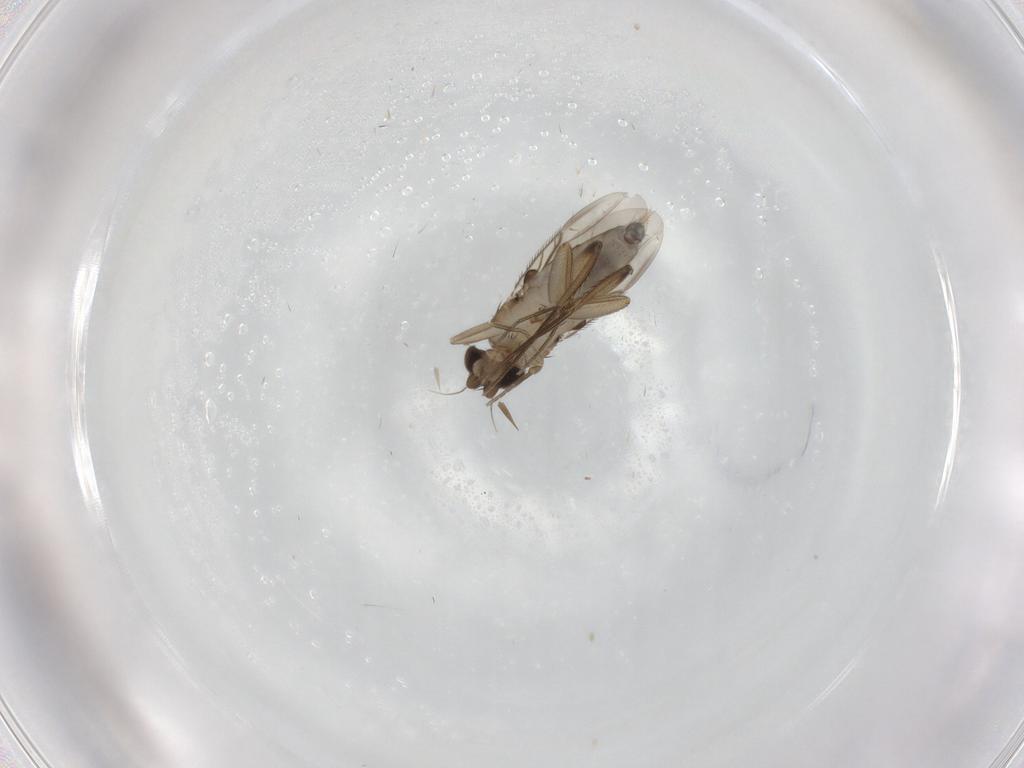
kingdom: Animalia
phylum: Arthropoda
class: Insecta
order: Diptera
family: Phoridae
